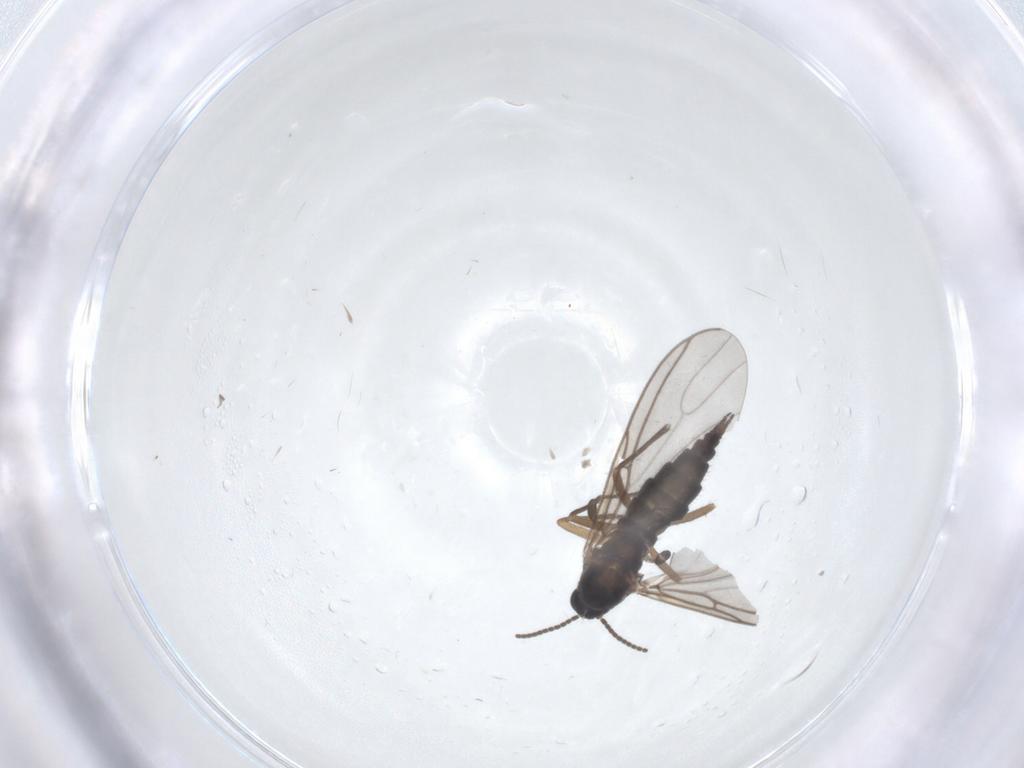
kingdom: Animalia
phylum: Arthropoda
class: Insecta
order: Diptera
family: Sciaridae
